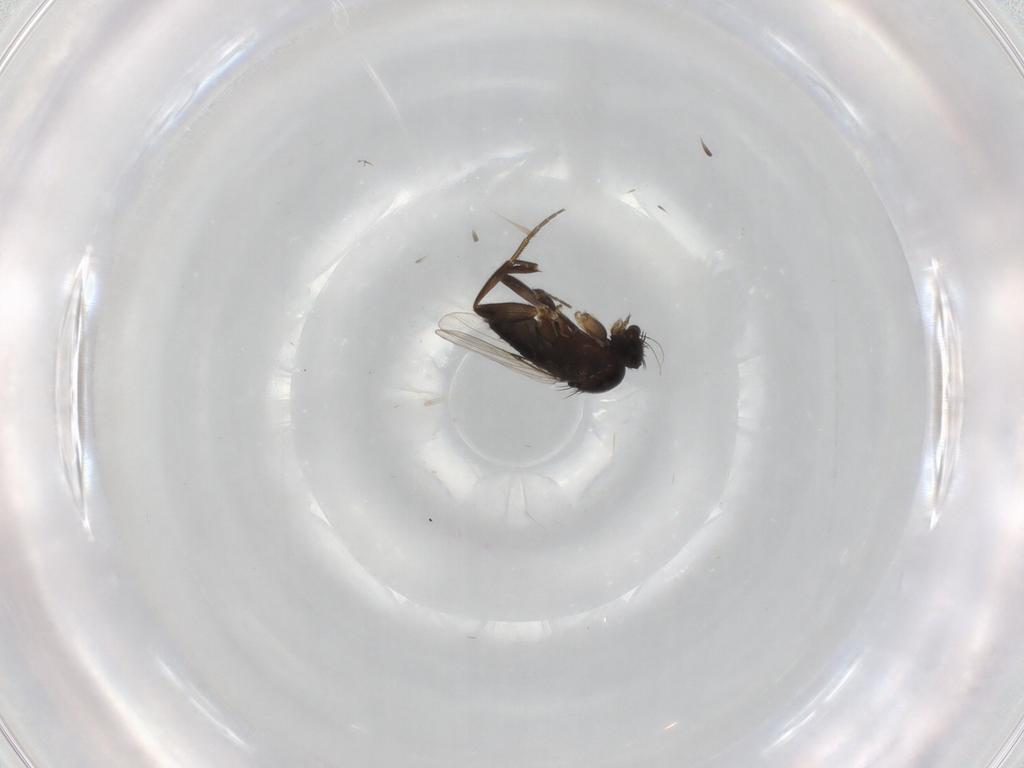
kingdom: Animalia
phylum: Arthropoda
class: Insecta
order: Diptera
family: Phoridae
